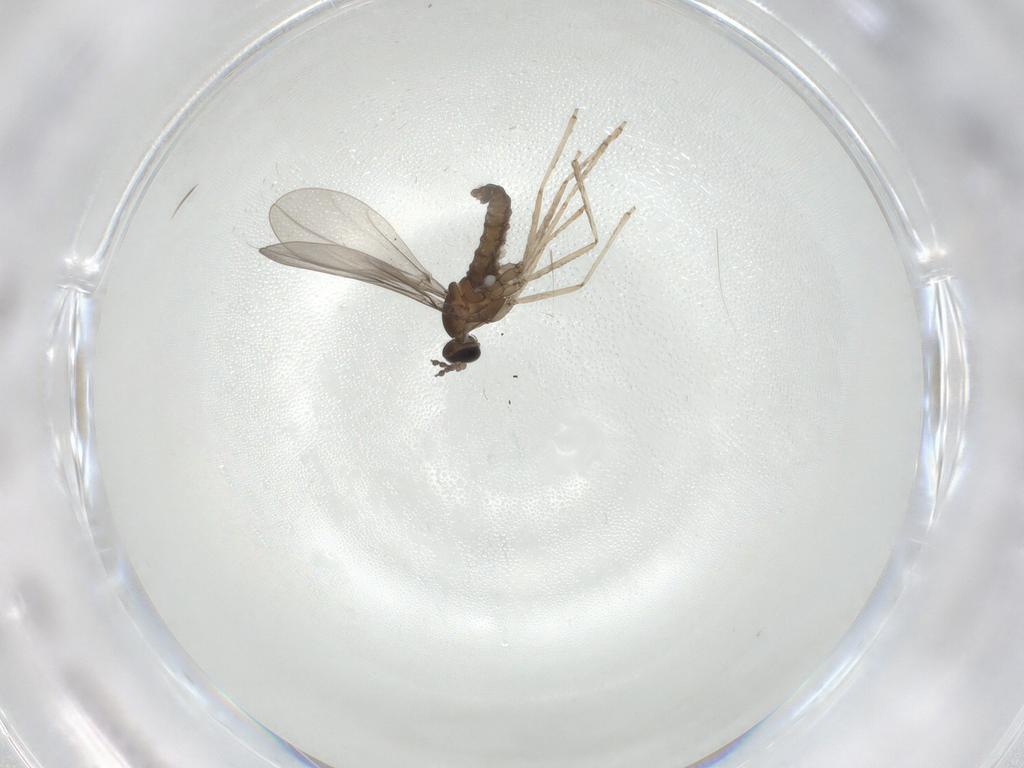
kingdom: Animalia
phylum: Arthropoda
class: Insecta
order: Diptera
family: Cecidomyiidae
